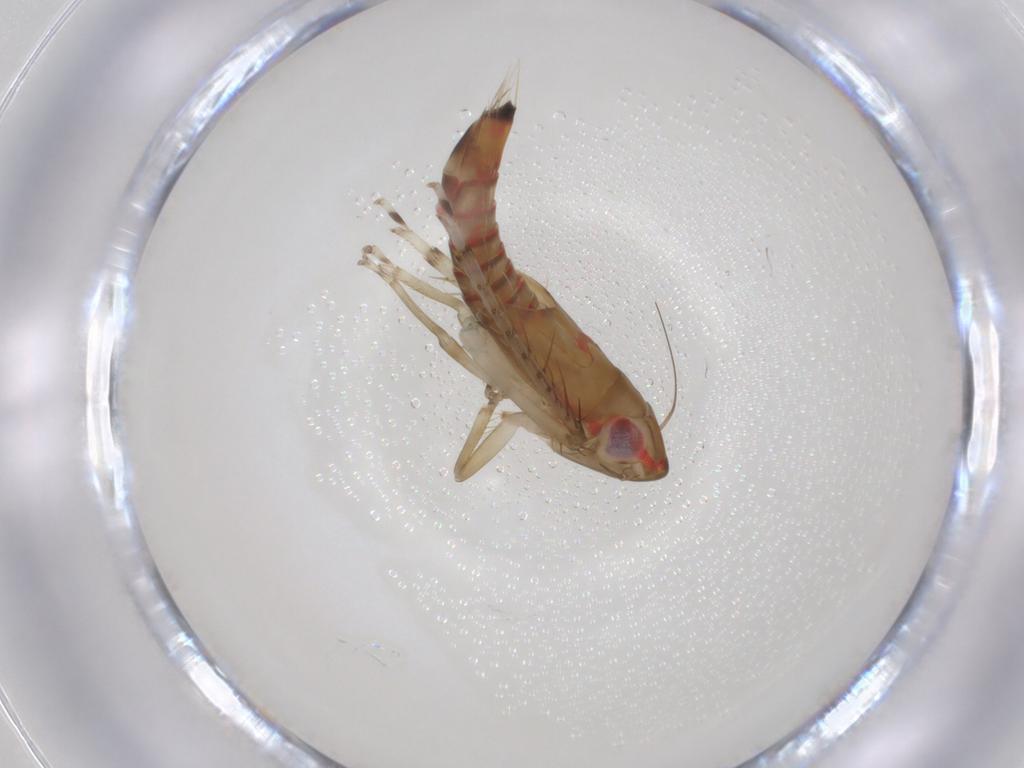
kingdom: Animalia
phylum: Arthropoda
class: Insecta
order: Hemiptera
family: Cicadellidae
